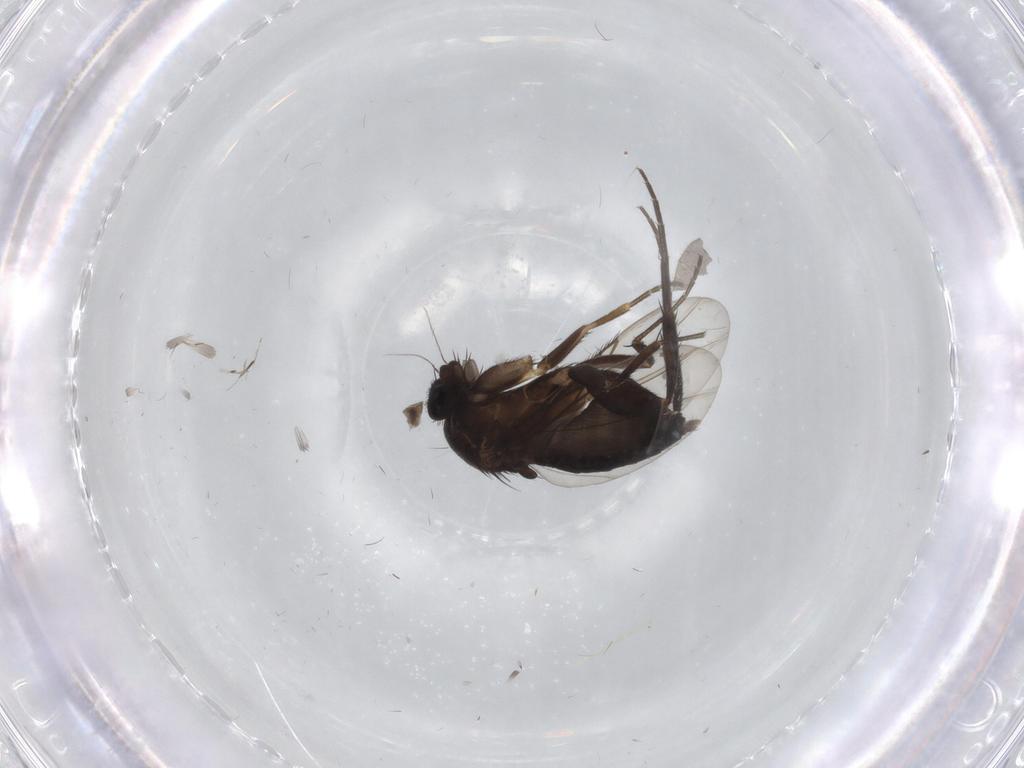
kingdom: Animalia
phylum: Arthropoda
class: Insecta
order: Diptera
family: Phoridae
